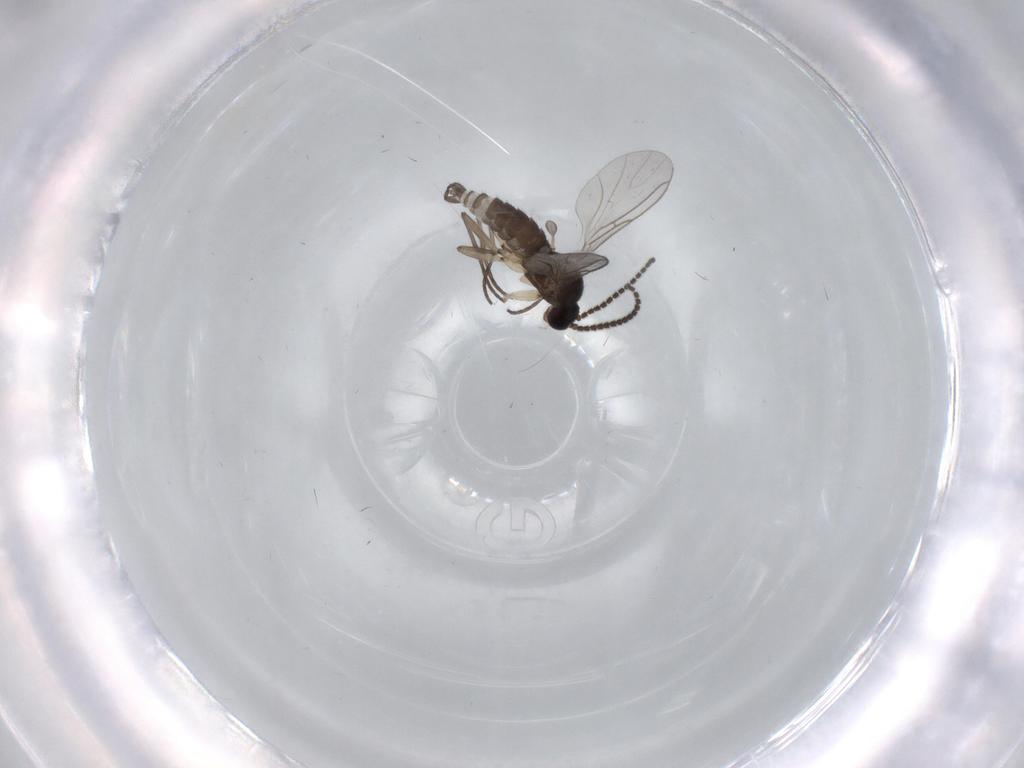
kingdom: Animalia
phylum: Arthropoda
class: Insecta
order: Diptera
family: Sciaridae
